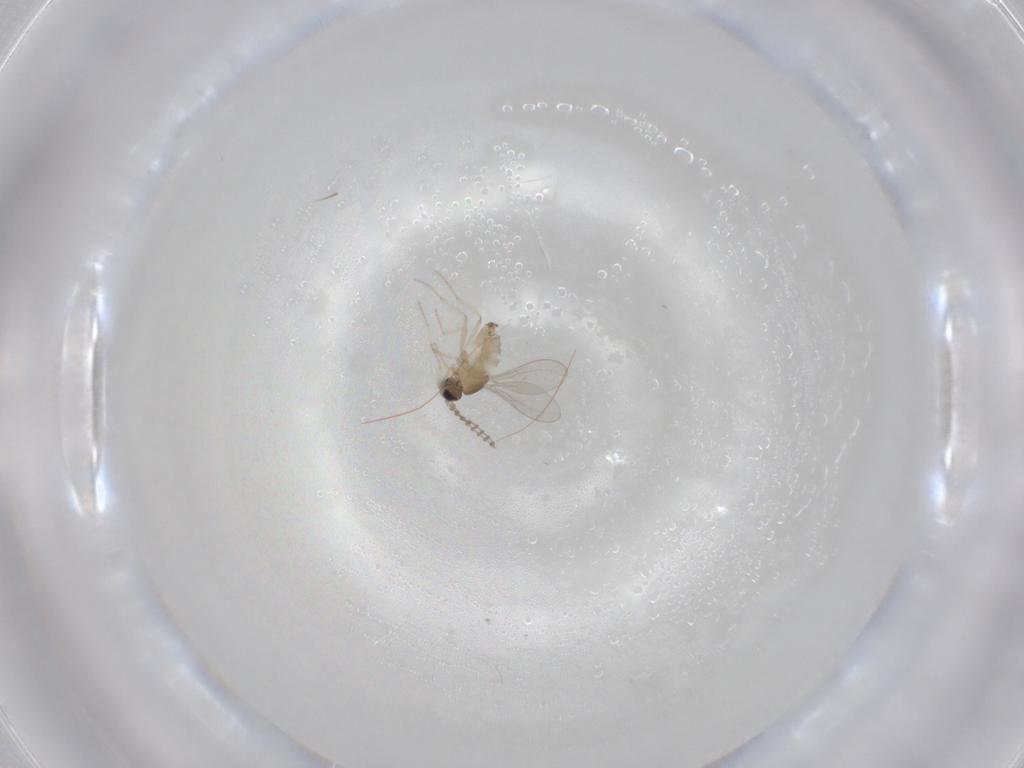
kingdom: Animalia
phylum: Arthropoda
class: Insecta
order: Diptera
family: Cecidomyiidae
